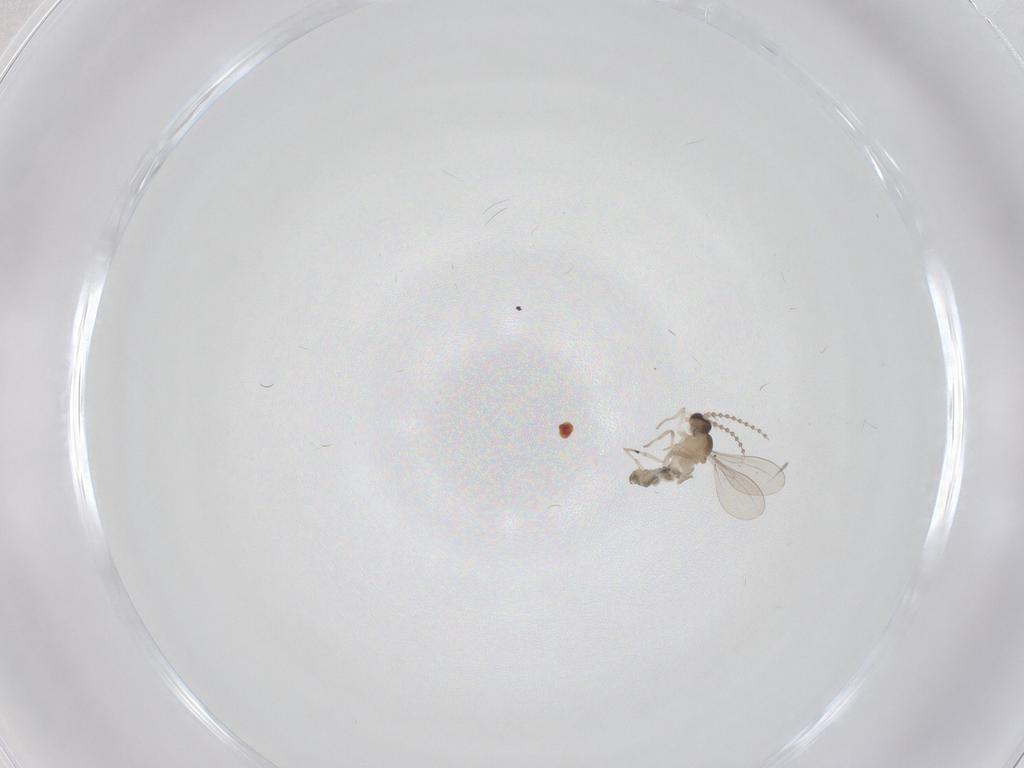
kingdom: Animalia
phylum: Arthropoda
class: Insecta
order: Diptera
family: Cecidomyiidae
